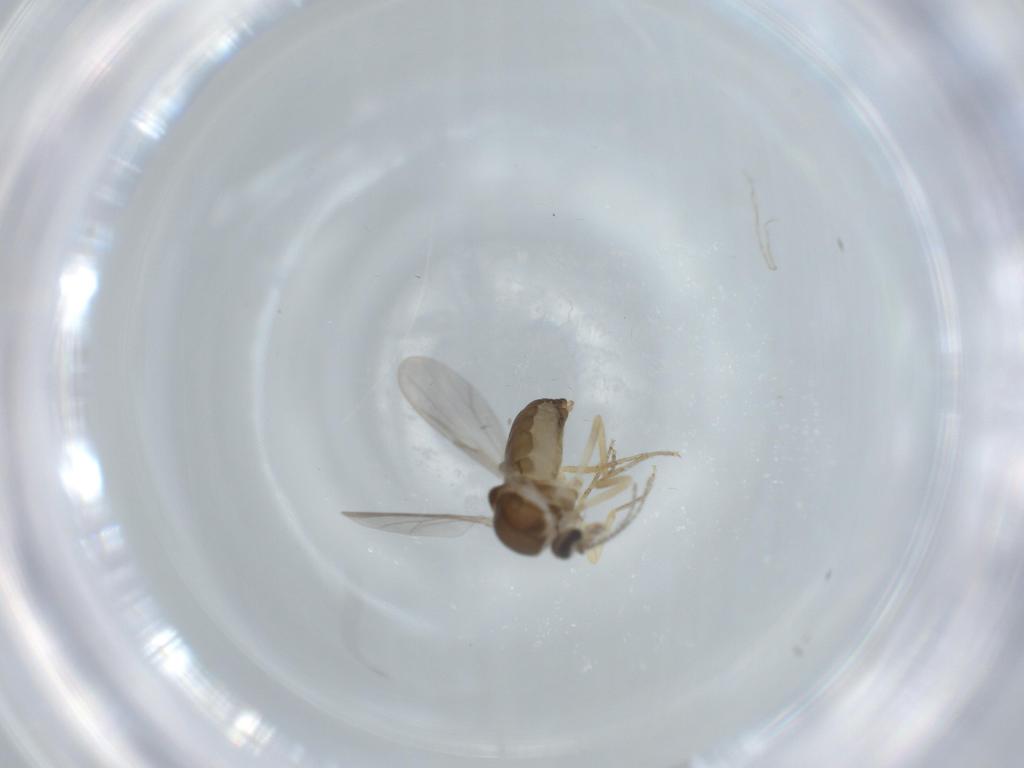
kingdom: Animalia
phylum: Arthropoda
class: Insecta
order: Diptera
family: Ceratopogonidae
